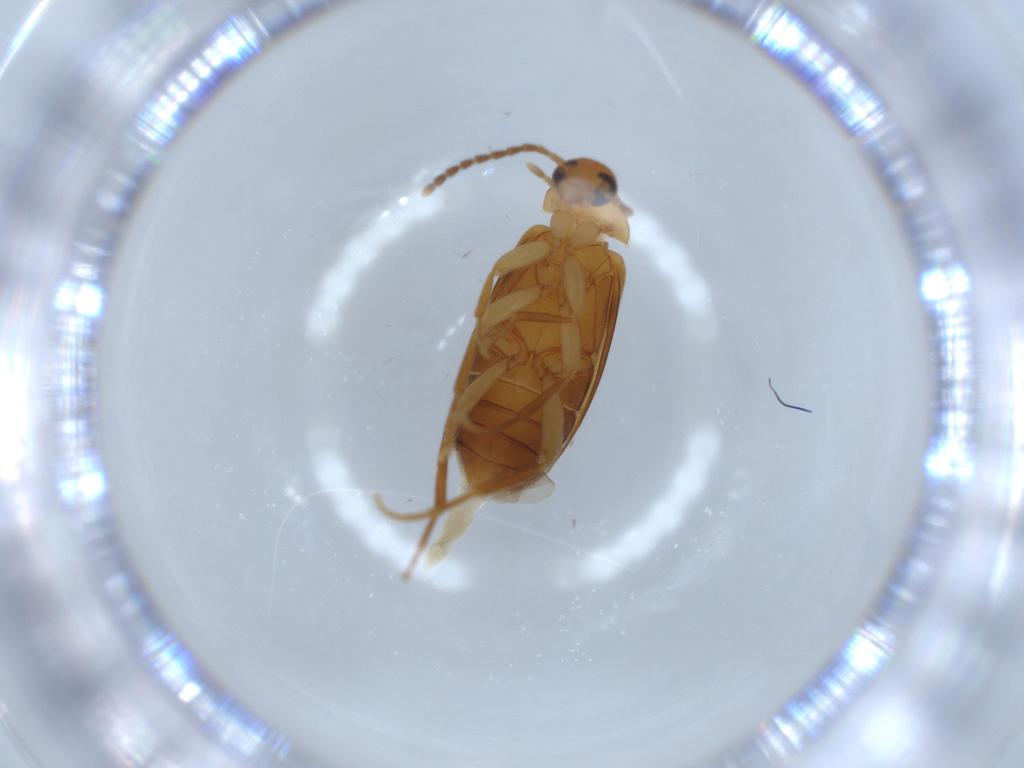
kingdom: Animalia
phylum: Arthropoda
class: Insecta
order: Coleoptera
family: Scraptiidae
